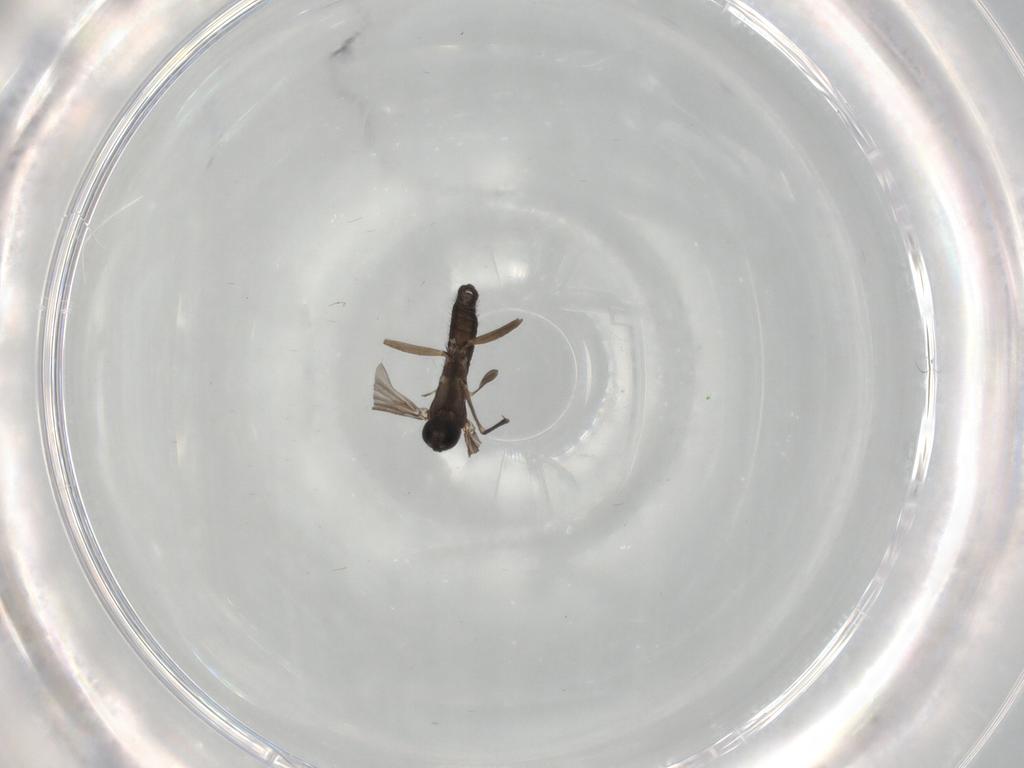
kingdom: Animalia
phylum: Arthropoda
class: Insecta
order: Diptera
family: Sciaridae
